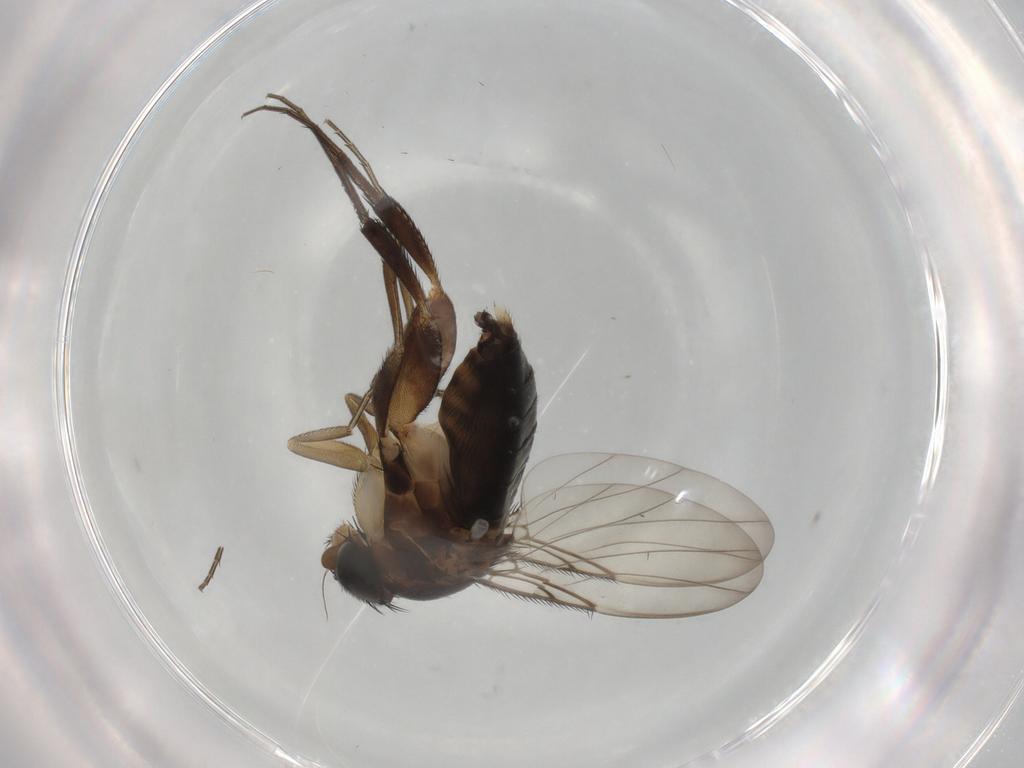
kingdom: Animalia
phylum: Arthropoda
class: Insecta
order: Diptera
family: Phoridae
